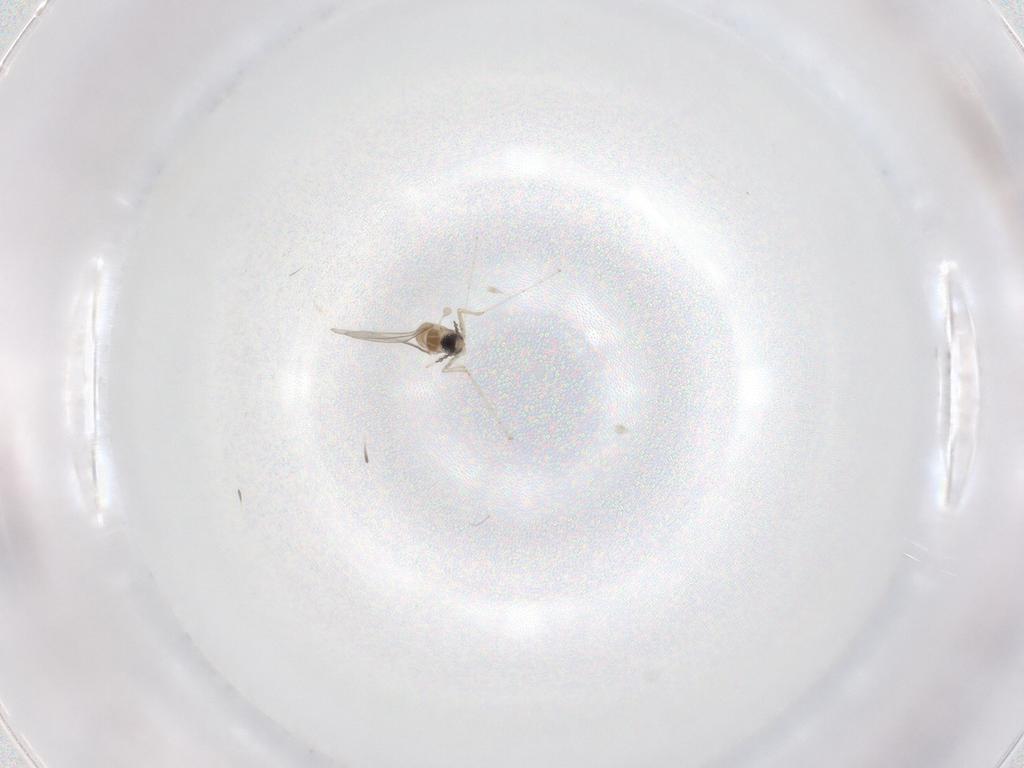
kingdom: Animalia
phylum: Arthropoda
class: Insecta
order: Diptera
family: Cecidomyiidae
